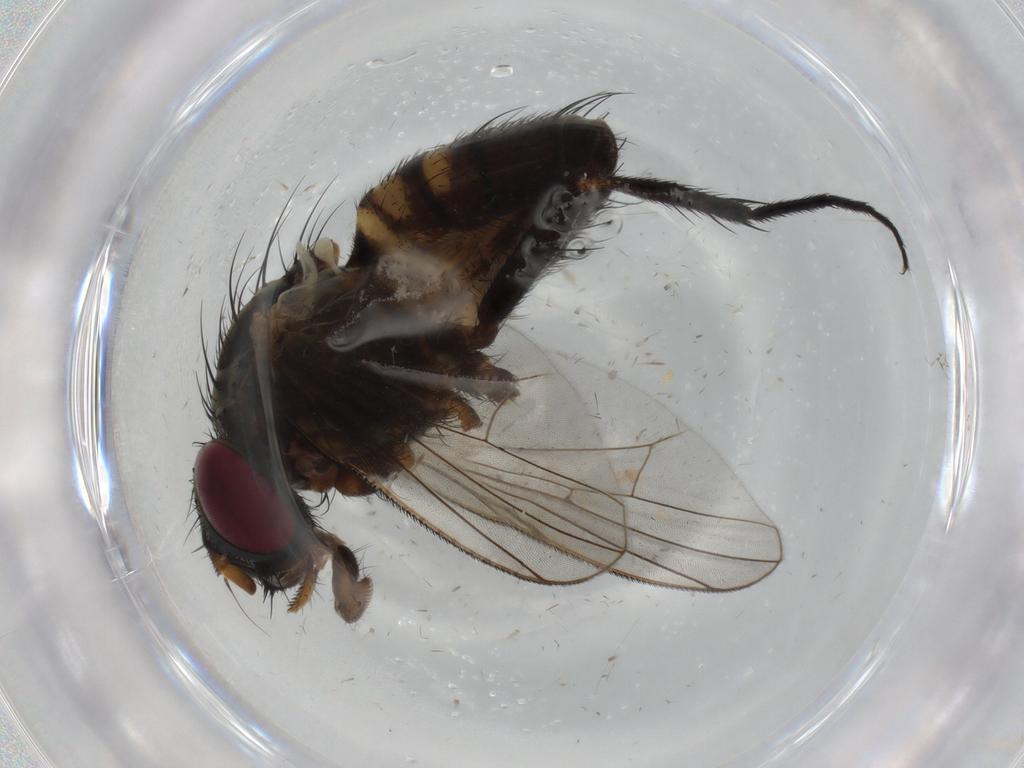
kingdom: Animalia
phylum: Arthropoda
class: Insecta
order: Diptera
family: Phoridae
